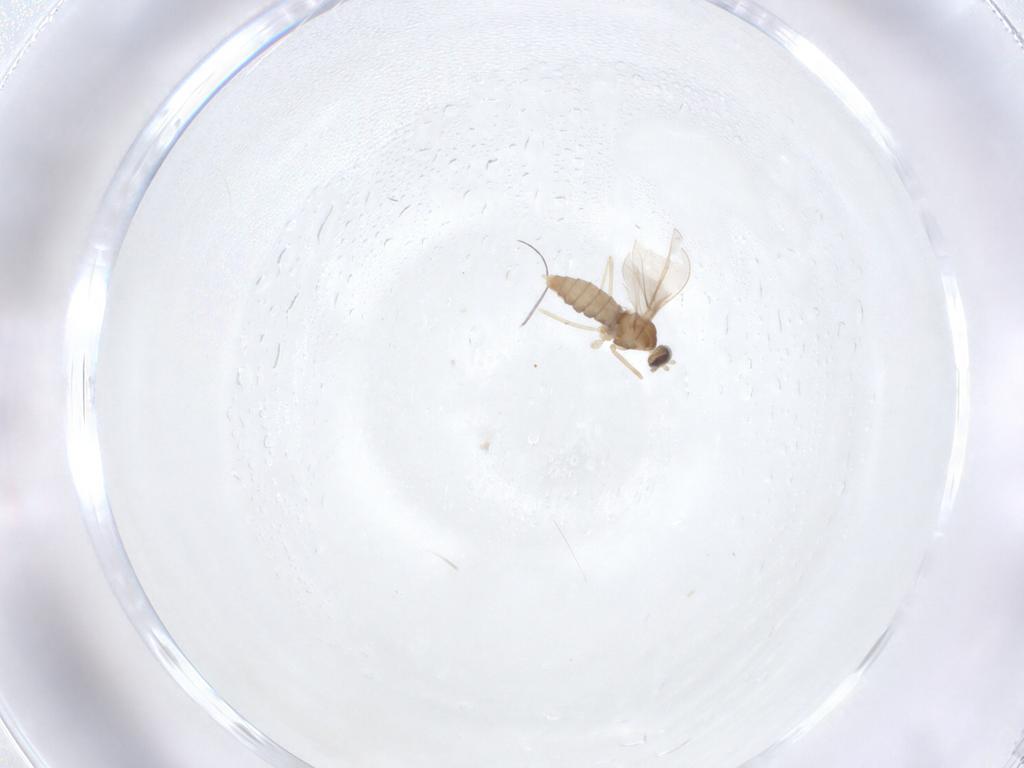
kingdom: Animalia
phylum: Arthropoda
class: Insecta
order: Diptera
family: Cecidomyiidae
